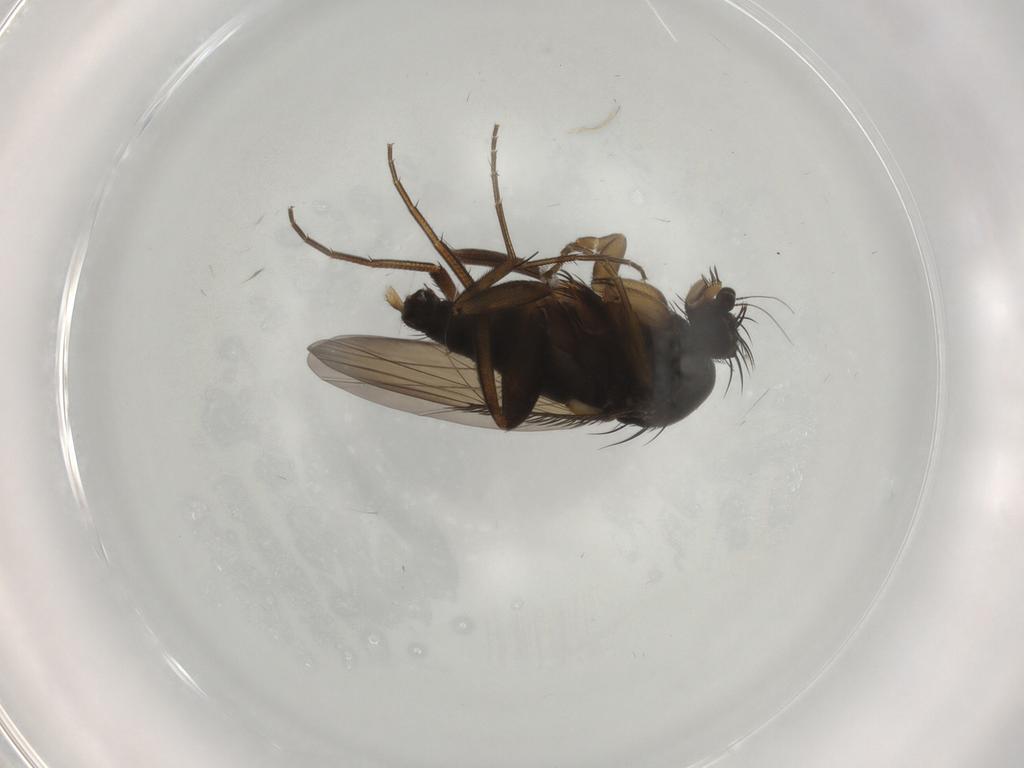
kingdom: Animalia
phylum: Arthropoda
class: Insecta
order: Diptera
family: Phoridae
